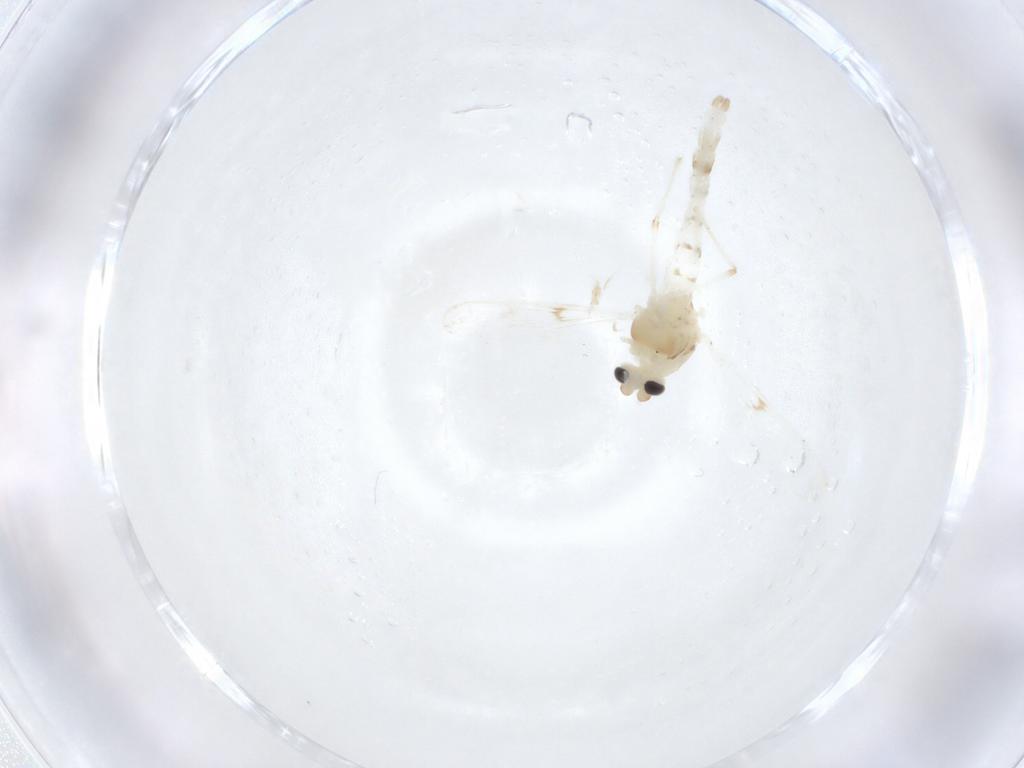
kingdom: Animalia
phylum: Arthropoda
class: Insecta
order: Diptera
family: Chironomidae
